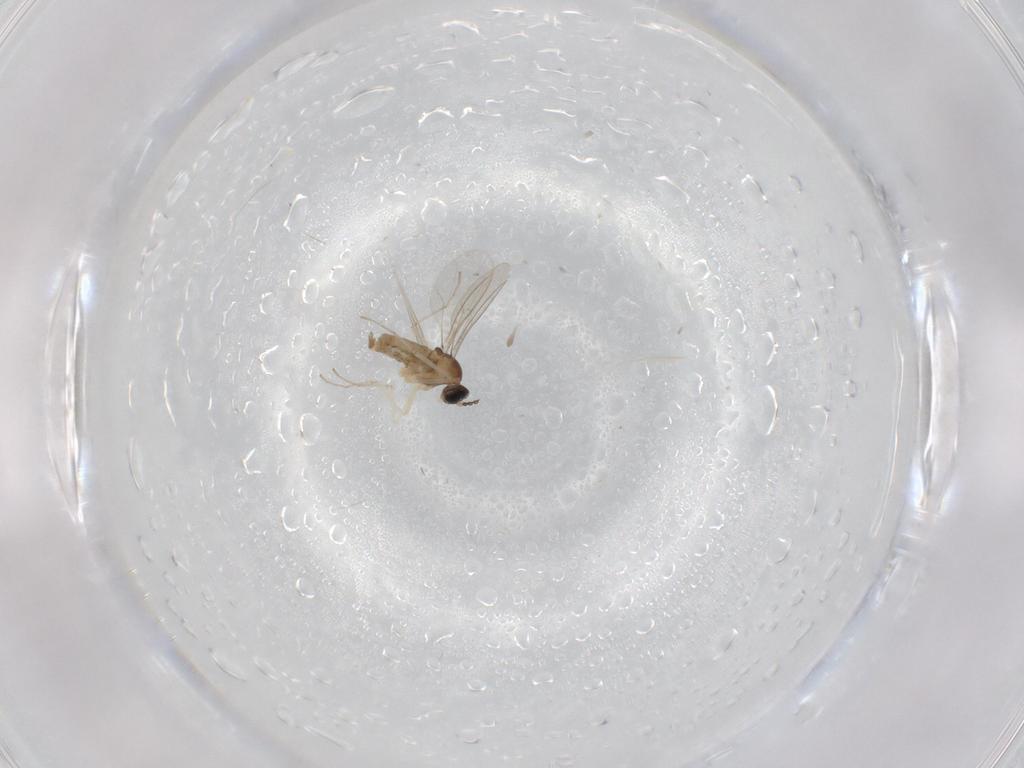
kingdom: Animalia
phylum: Arthropoda
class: Insecta
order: Diptera
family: Cecidomyiidae
